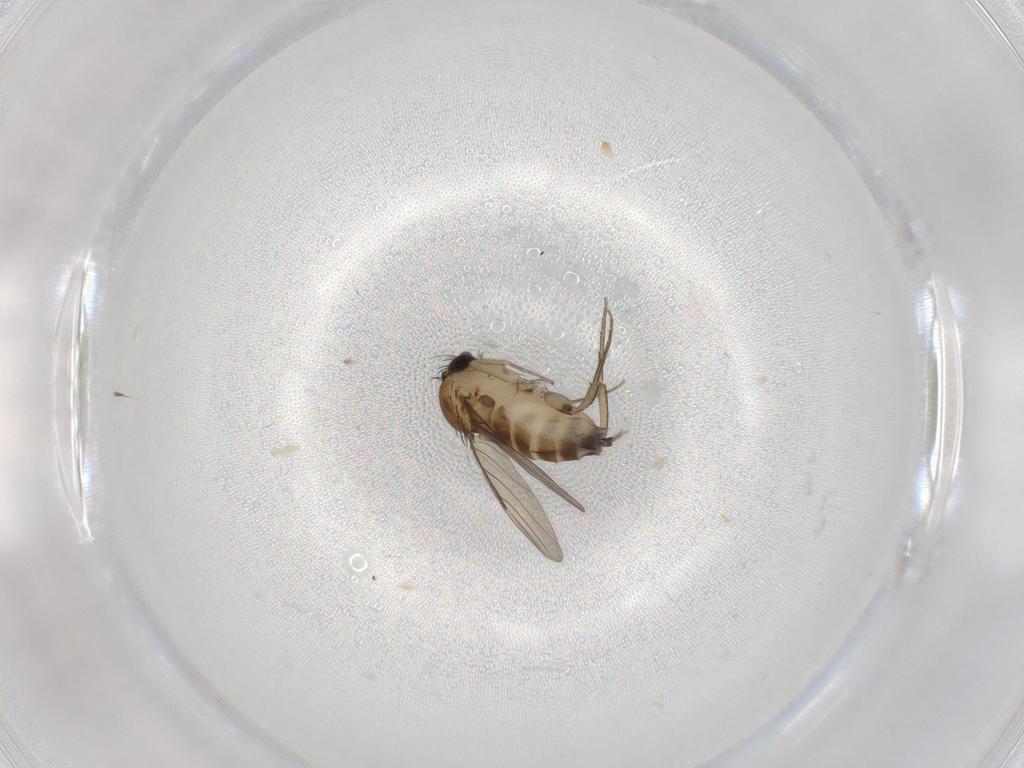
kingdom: Animalia
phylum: Arthropoda
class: Insecta
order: Diptera
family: Phoridae
